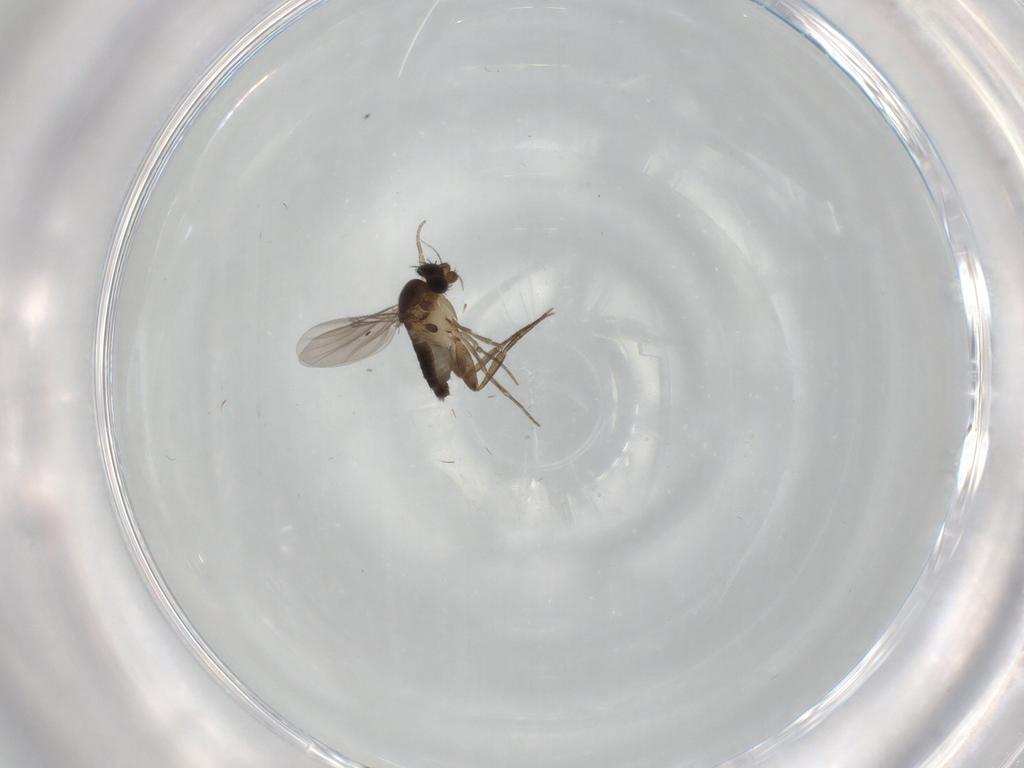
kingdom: Animalia
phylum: Arthropoda
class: Insecta
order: Diptera
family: Phoridae
